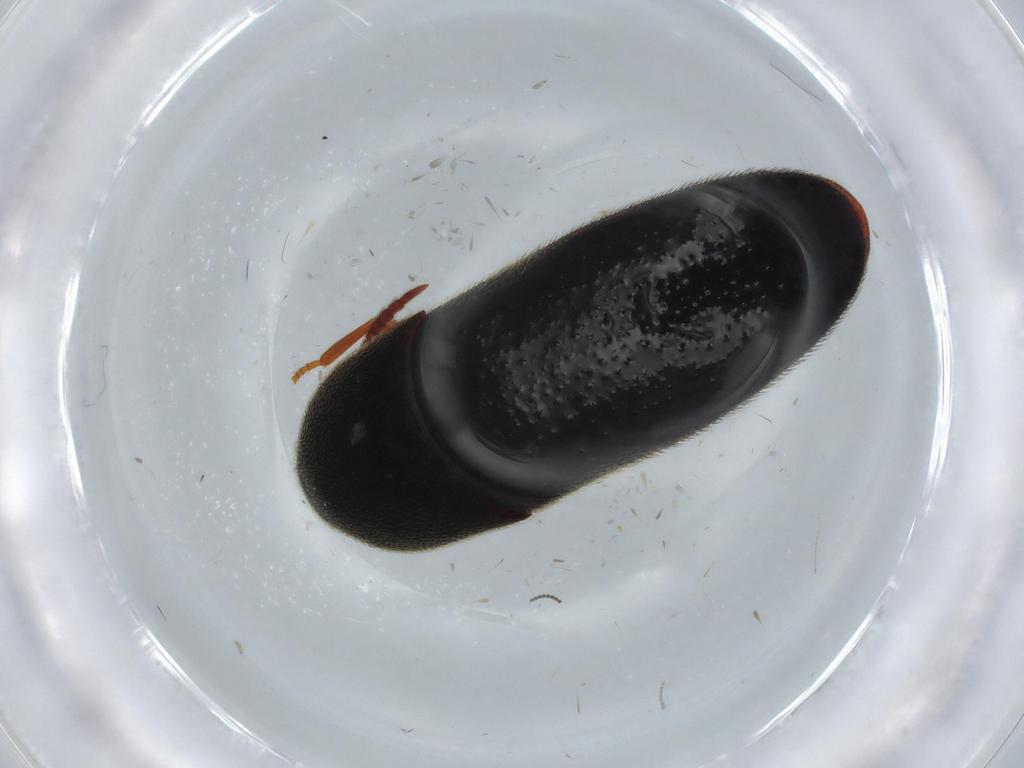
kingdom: Animalia
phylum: Arthropoda
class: Insecta
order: Coleoptera
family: Eucnemidae
